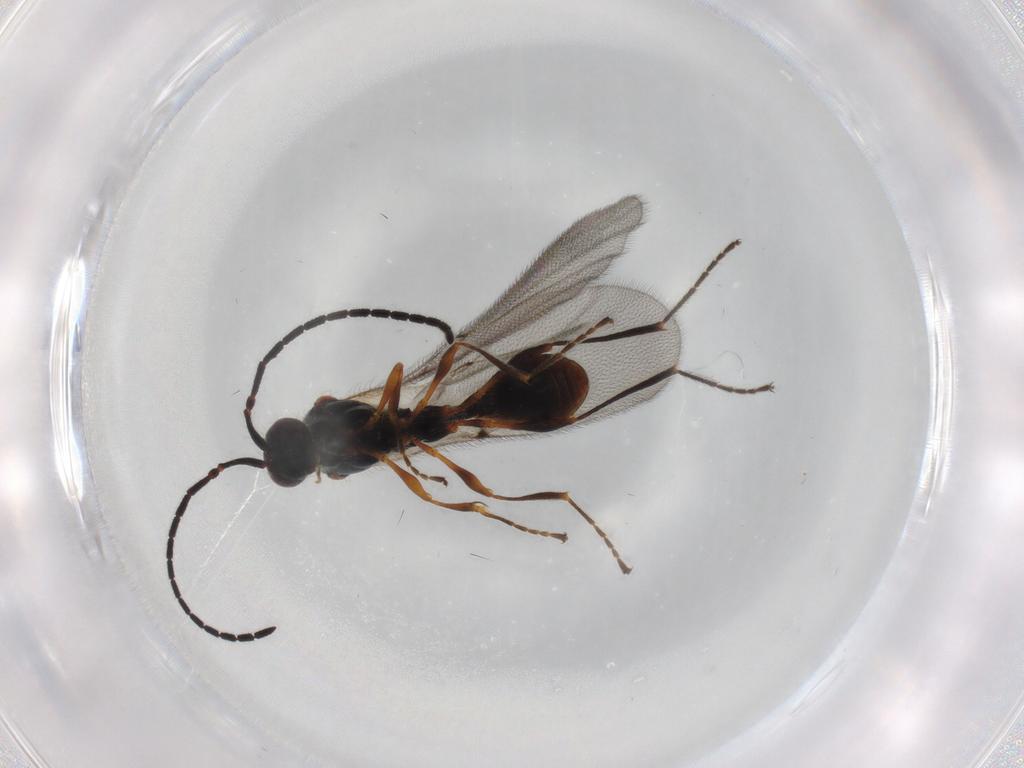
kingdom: Animalia
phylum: Arthropoda
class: Insecta
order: Hymenoptera
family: Diapriidae
